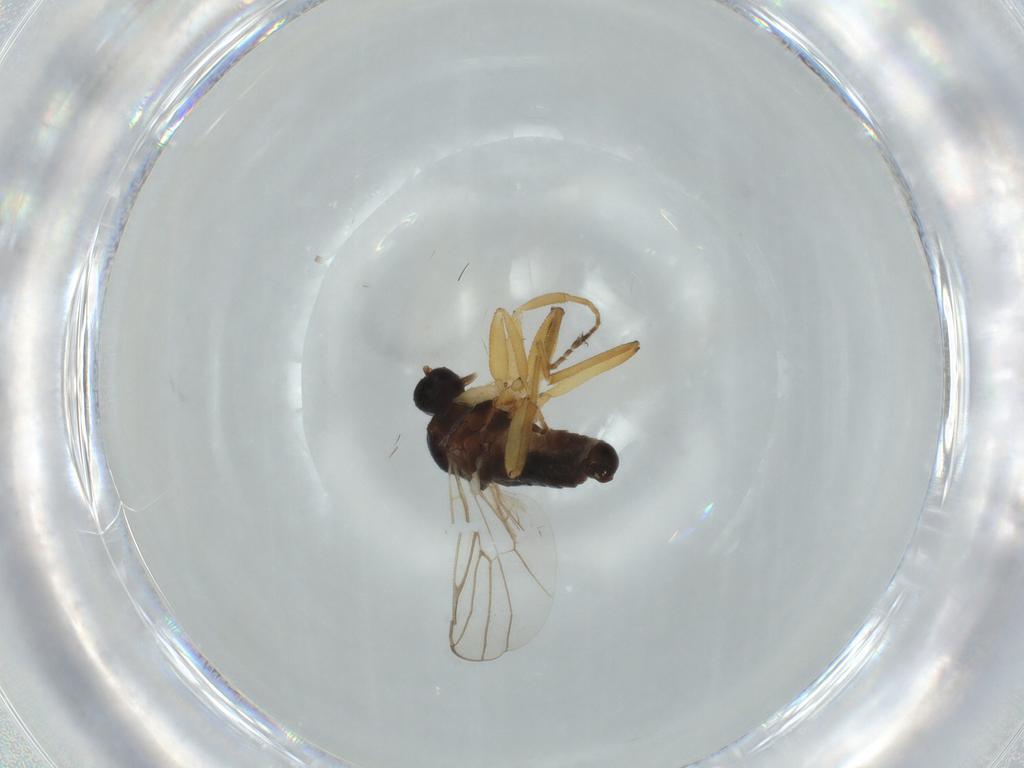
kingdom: Animalia
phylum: Arthropoda
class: Insecta
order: Diptera
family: Hybotidae
